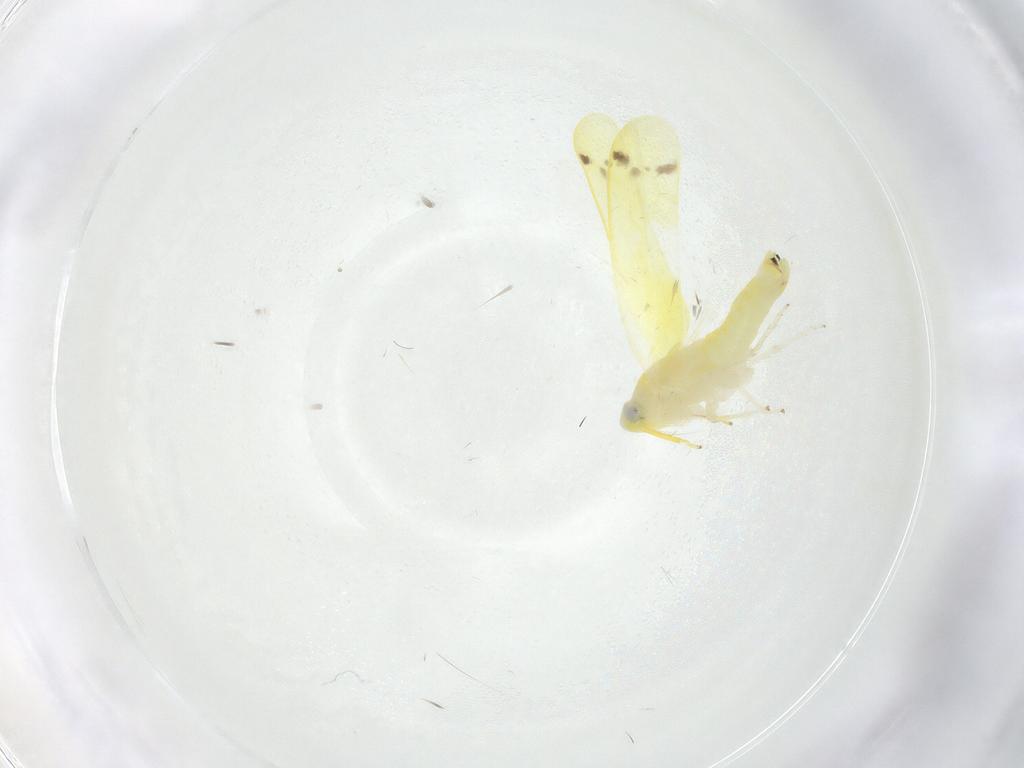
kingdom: Animalia
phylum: Arthropoda
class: Insecta
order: Hemiptera
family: Cicadellidae
